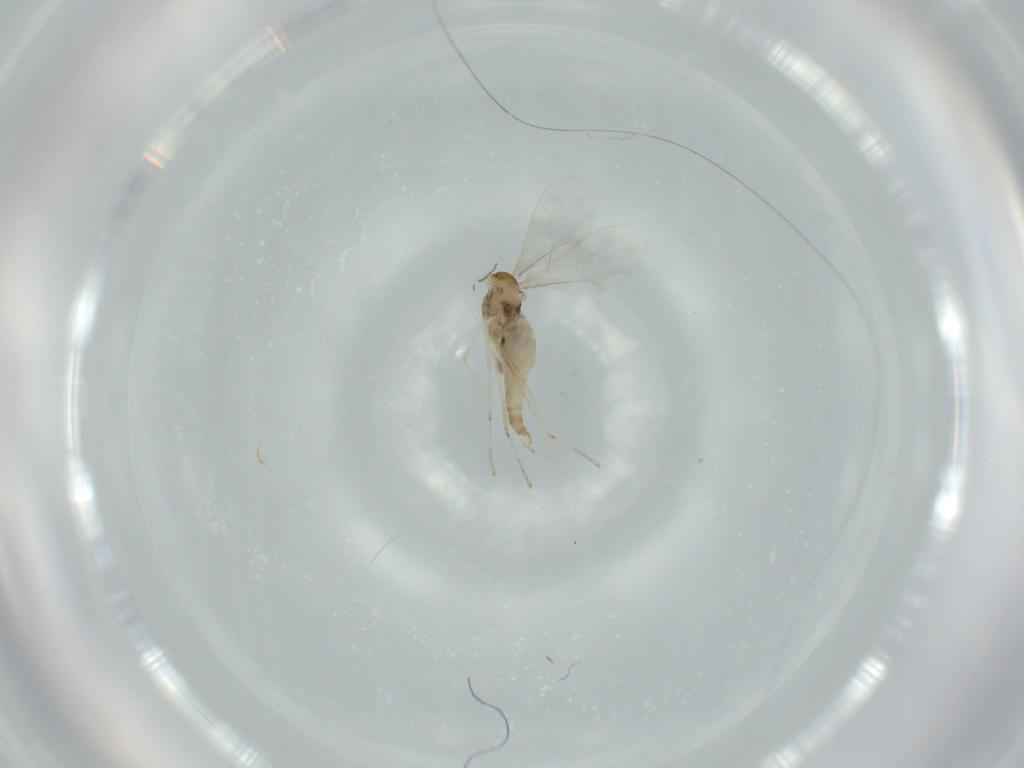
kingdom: Animalia
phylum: Arthropoda
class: Insecta
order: Diptera
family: Cecidomyiidae
